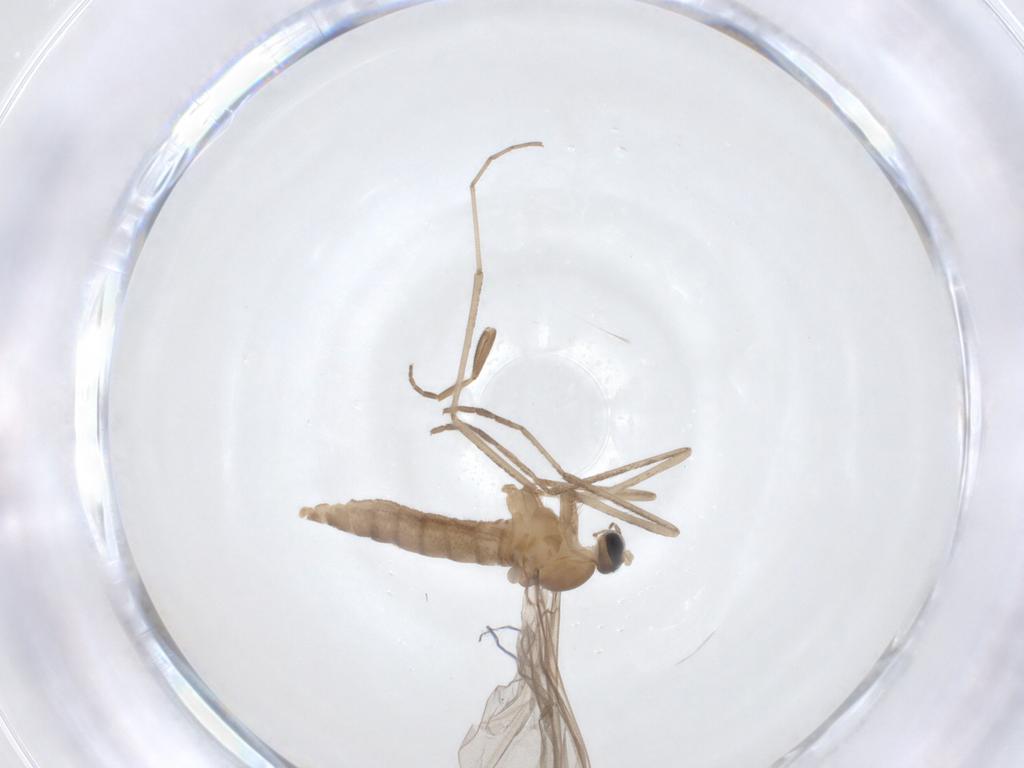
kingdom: Animalia
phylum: Arthropoda
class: Insecta
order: Diptera
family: Cecidomyiidae
